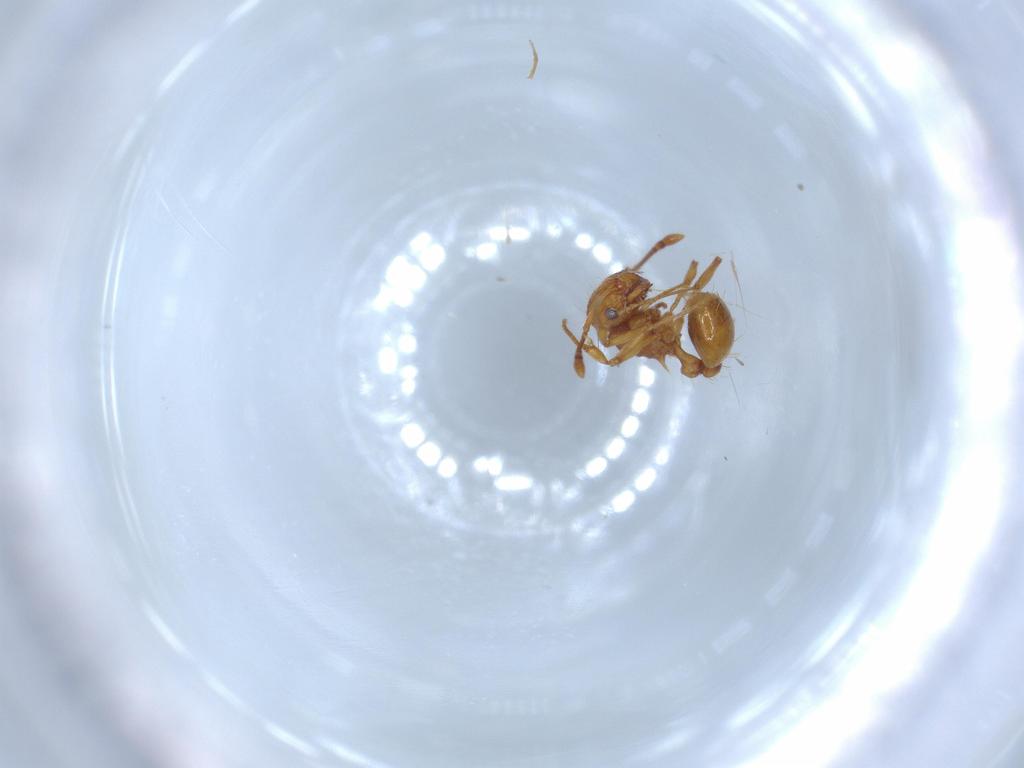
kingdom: Animalia
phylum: Arthropoda
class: Insecta
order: Hymenoptera
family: Formicidae
